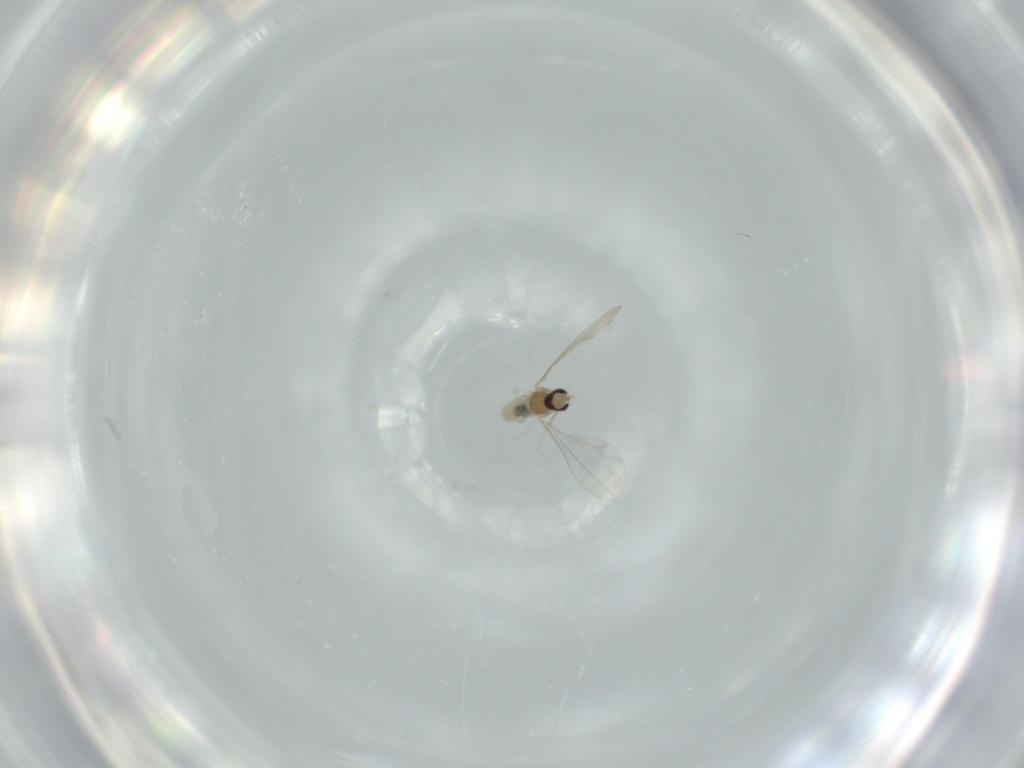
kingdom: Animalia
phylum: Arthropoda
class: Insecta
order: Diptera
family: Cecidomyiidae
